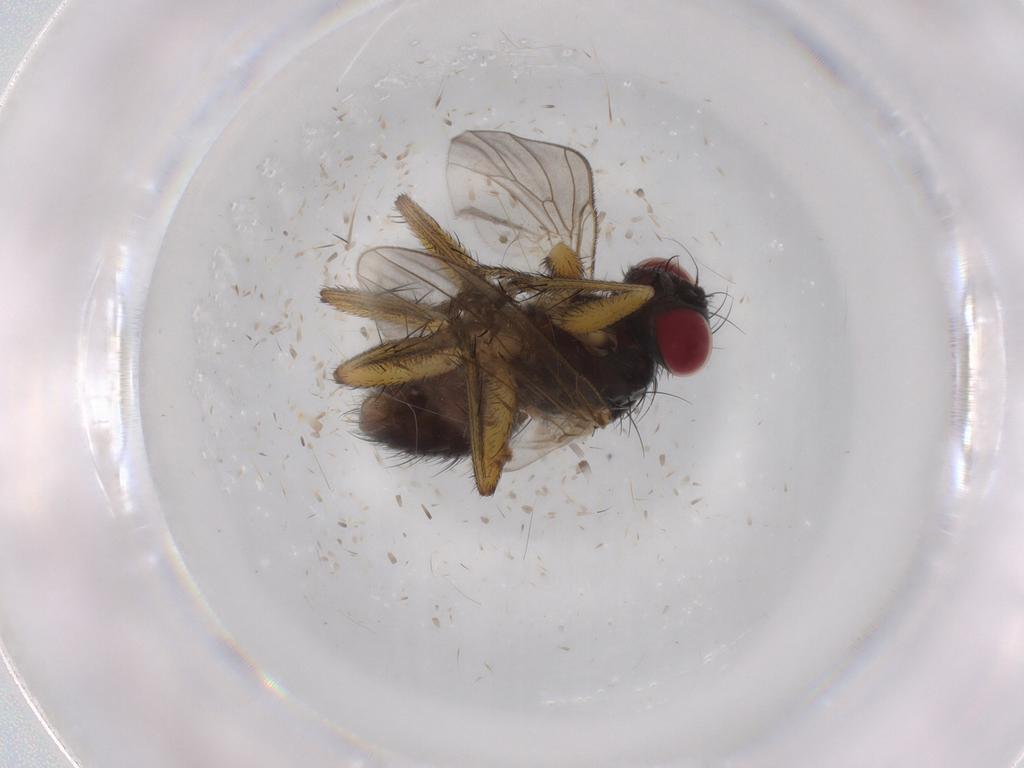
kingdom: Animalia
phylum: Arthropoda
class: Insecta
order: Diptera
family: Muscidae
